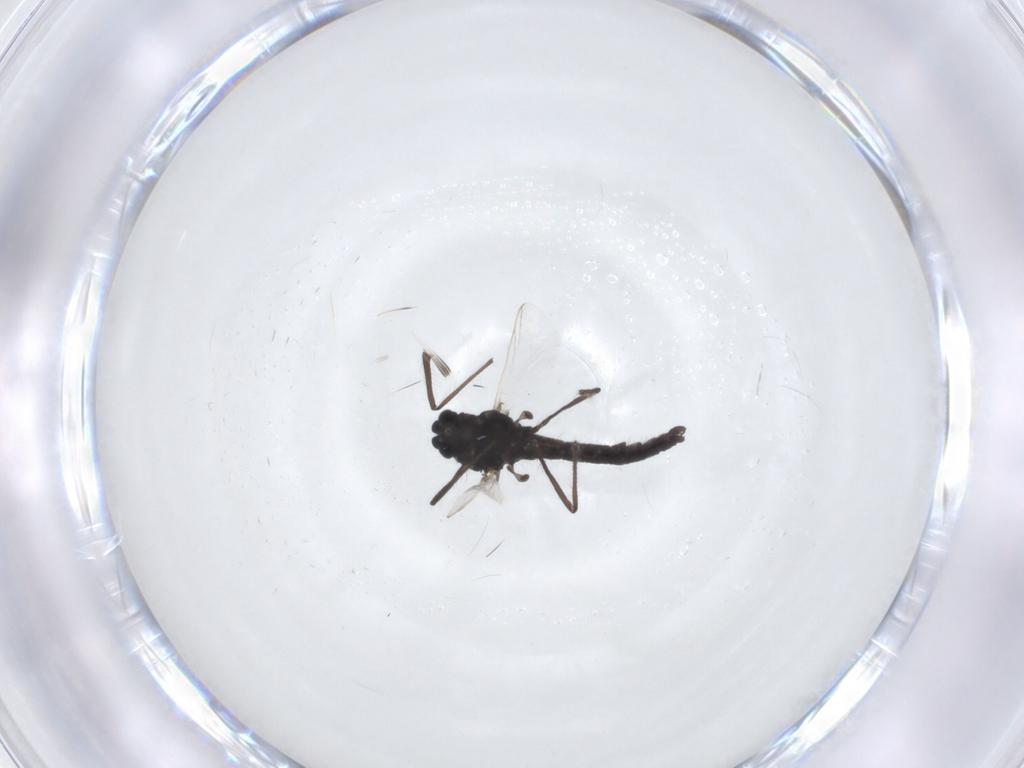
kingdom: Animalia
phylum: Arthropoda
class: Insecta
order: Diptera
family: Chironomidae
